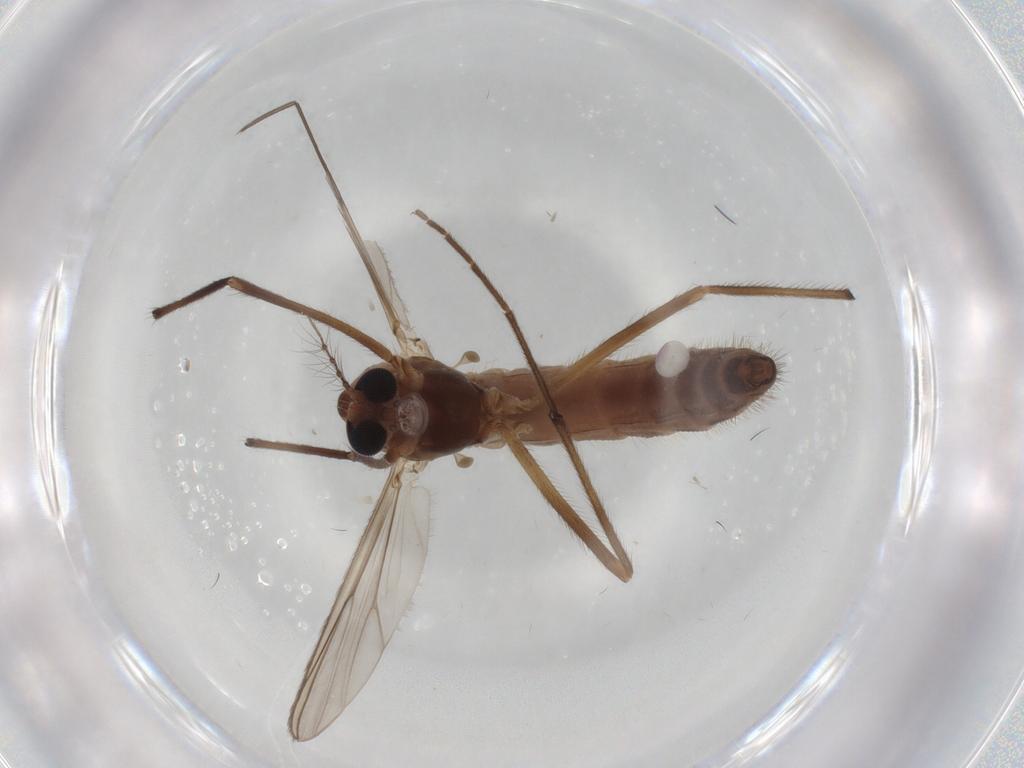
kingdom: Animalia
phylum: Arthropoda
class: Insecta
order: Diptera
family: Chironomidae
